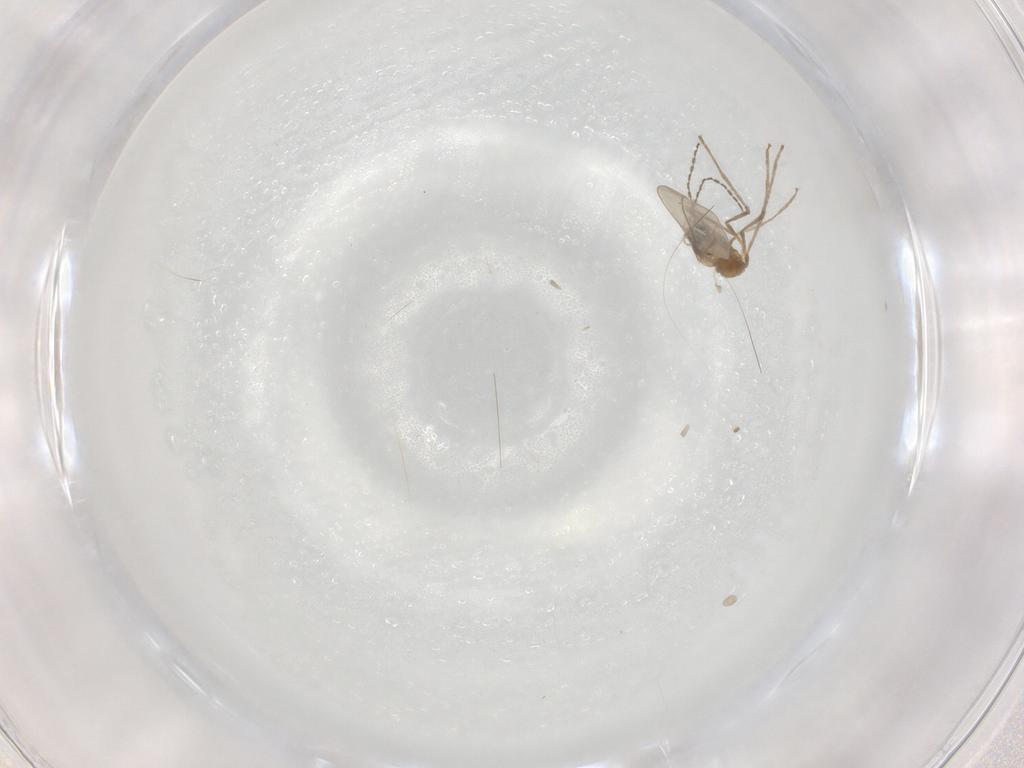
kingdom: Animalia
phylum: Arthropoda
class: Insecta
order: Diptera
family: Cecidomyiidae
